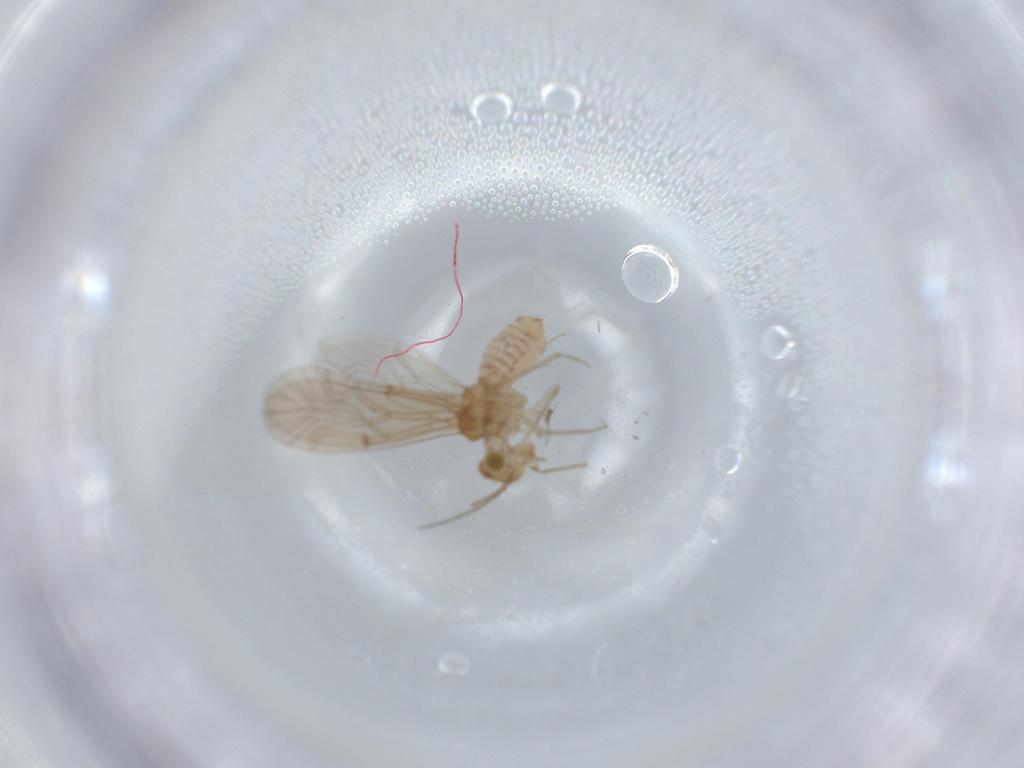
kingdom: Animalia
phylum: Arthropoda
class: Insecta
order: Psocodea
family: Lachesillidae
